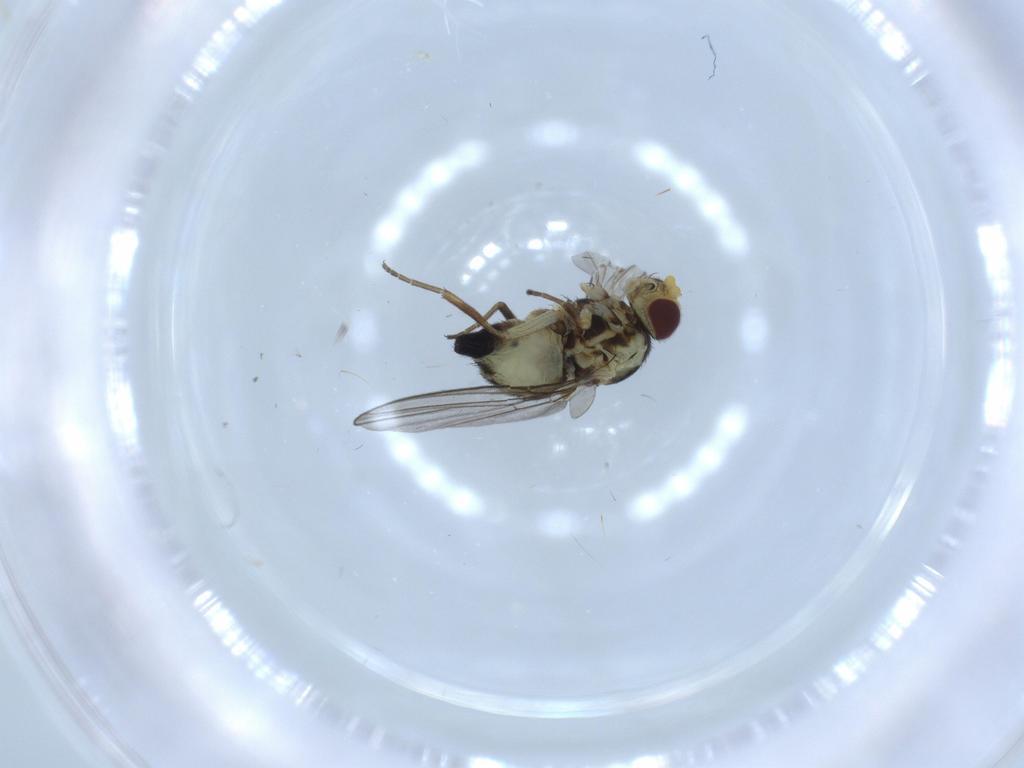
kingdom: Animalia
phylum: Arthropoda
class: Insecta
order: Diptera
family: Agromyzidae
